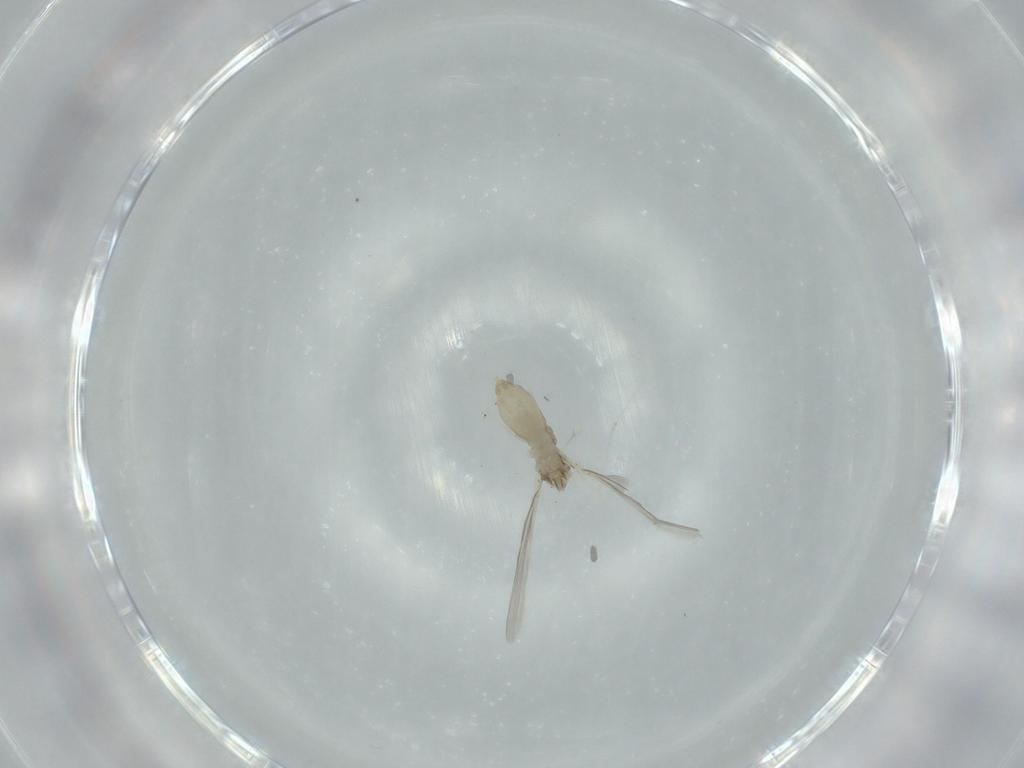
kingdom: Animalia
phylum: Arthropoda
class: Insecta
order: Diptera
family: Cecidomyiidae
